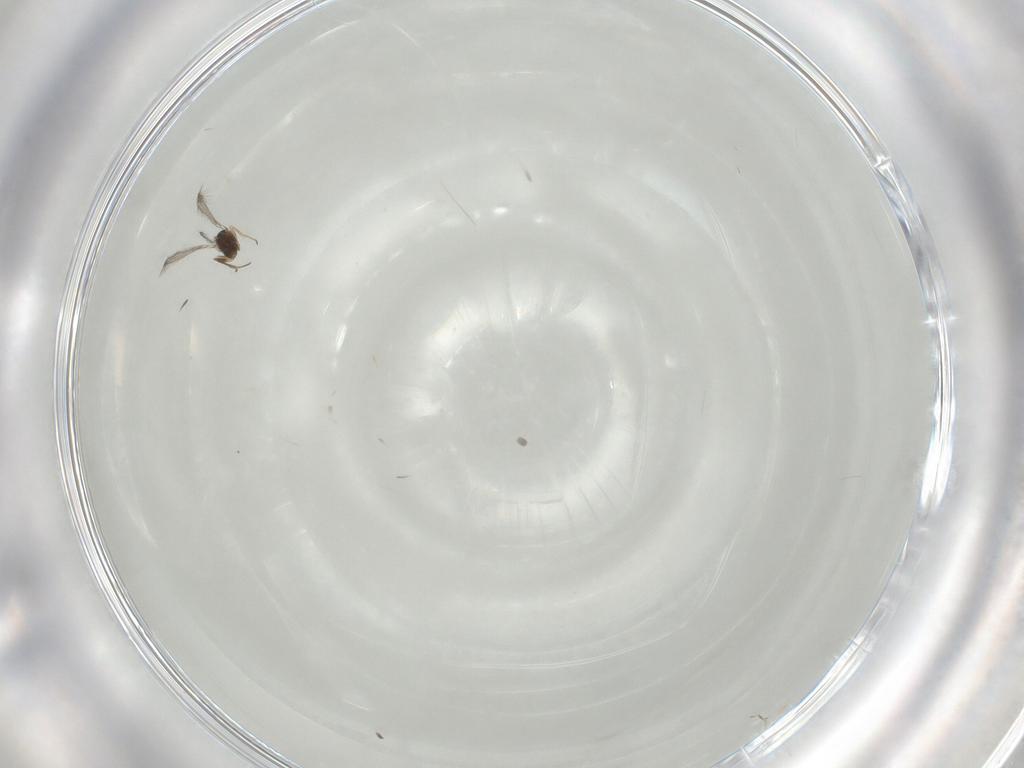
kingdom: Animalia
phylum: Arthropoda
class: Insecta
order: Hymenoptera
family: Mymaridae
